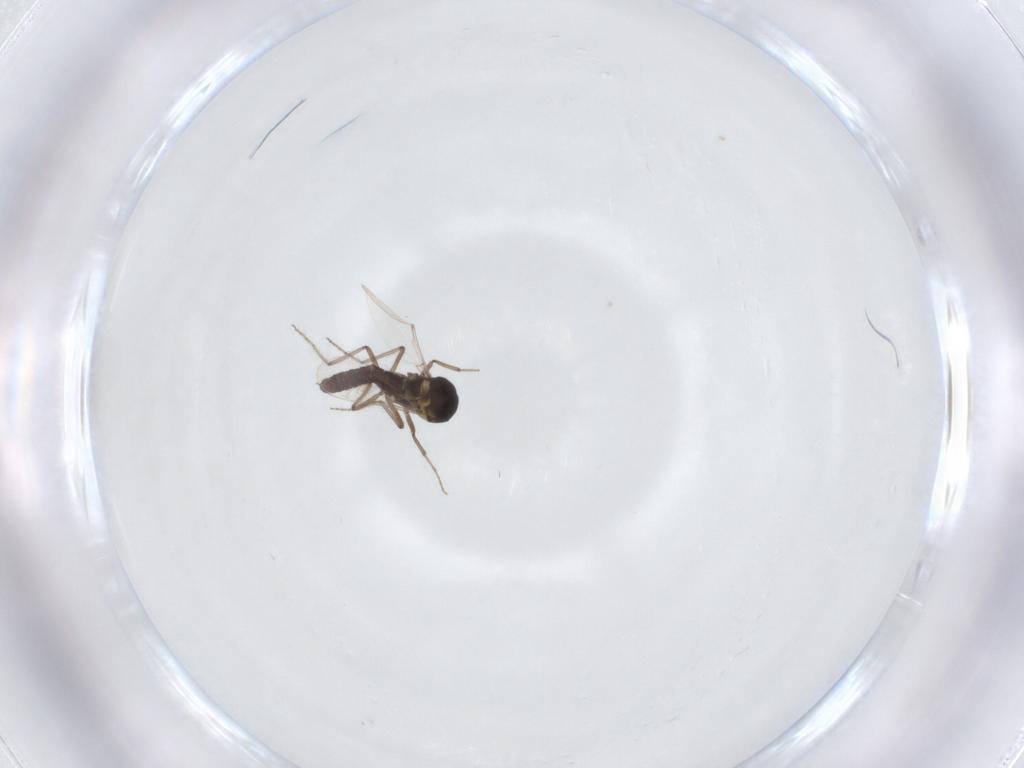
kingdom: Animalia
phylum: Arthropoda
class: Insecta
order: Diptera
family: Ceratopogonidae
